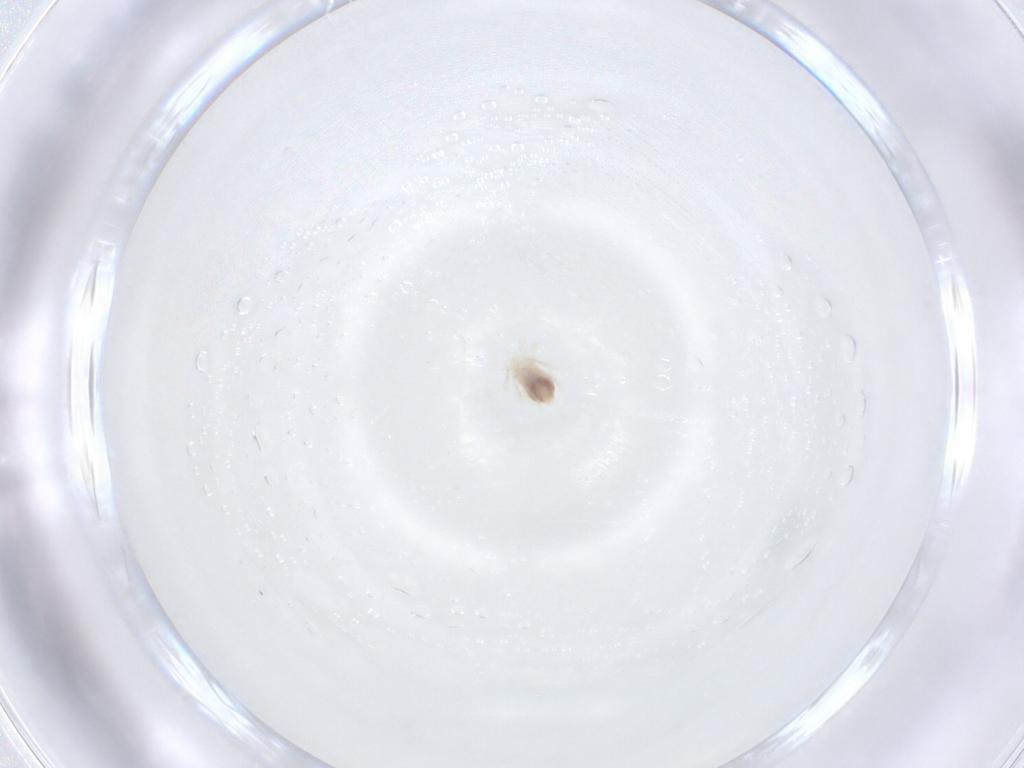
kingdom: Animalia
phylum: Arthropoda
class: Arachnida
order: Trombidiformes
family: Anystidae
